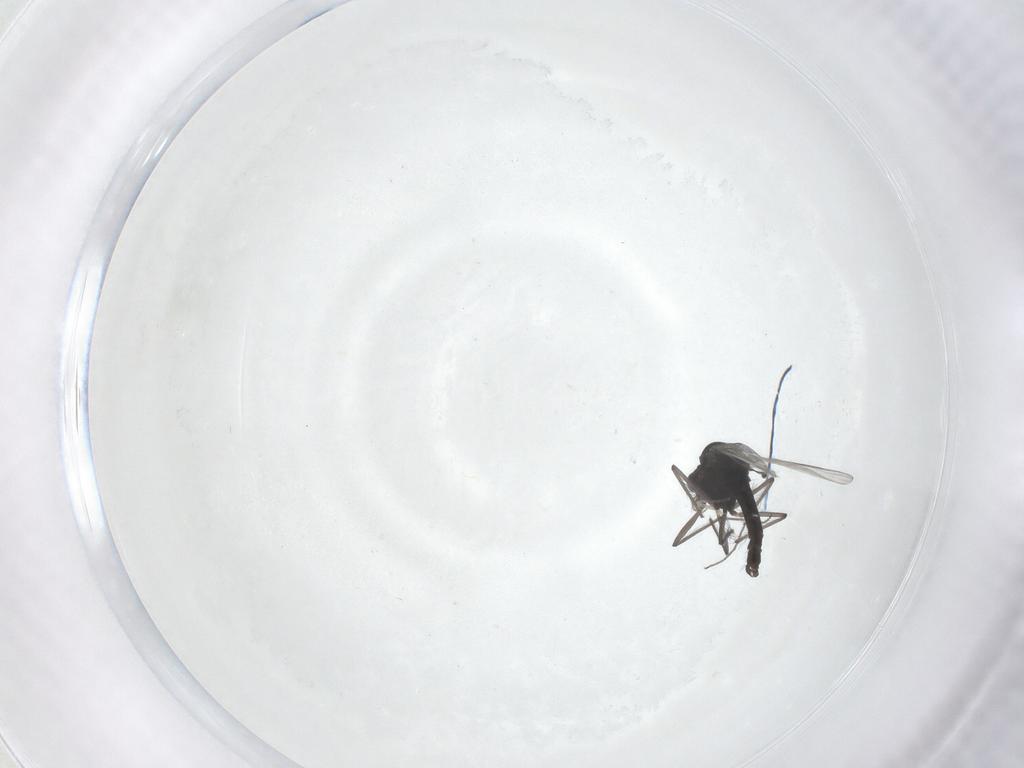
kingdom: Animalia
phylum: Arthropoda
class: Insecta
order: Diptera
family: Chironomidae
